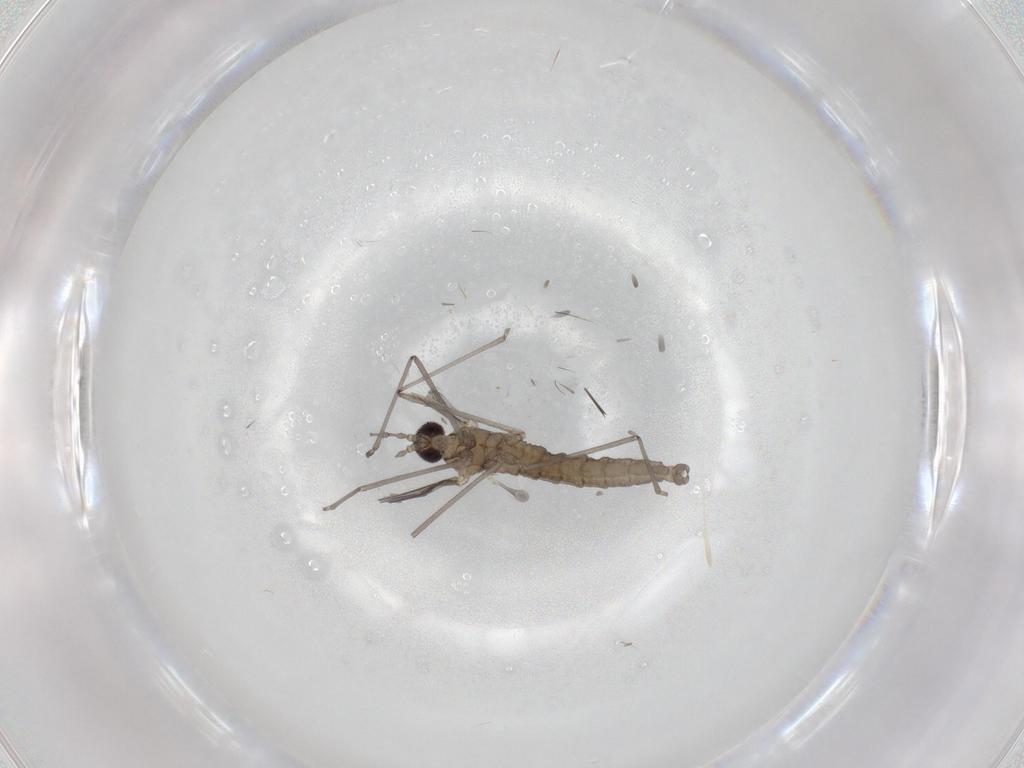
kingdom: Animalia
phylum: Arthropoda
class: Insecta
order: Diptera
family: Cecidomyiidae
